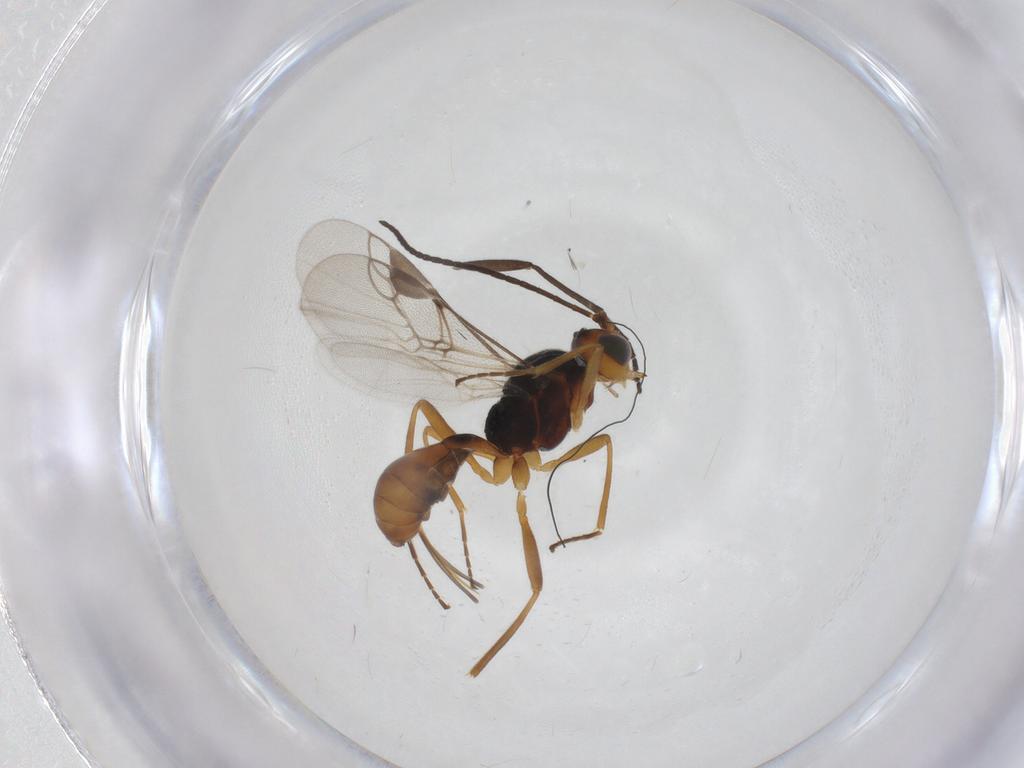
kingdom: Animalia
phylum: Arthropoda
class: Insecta
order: Hymenoptera
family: Braconidae
